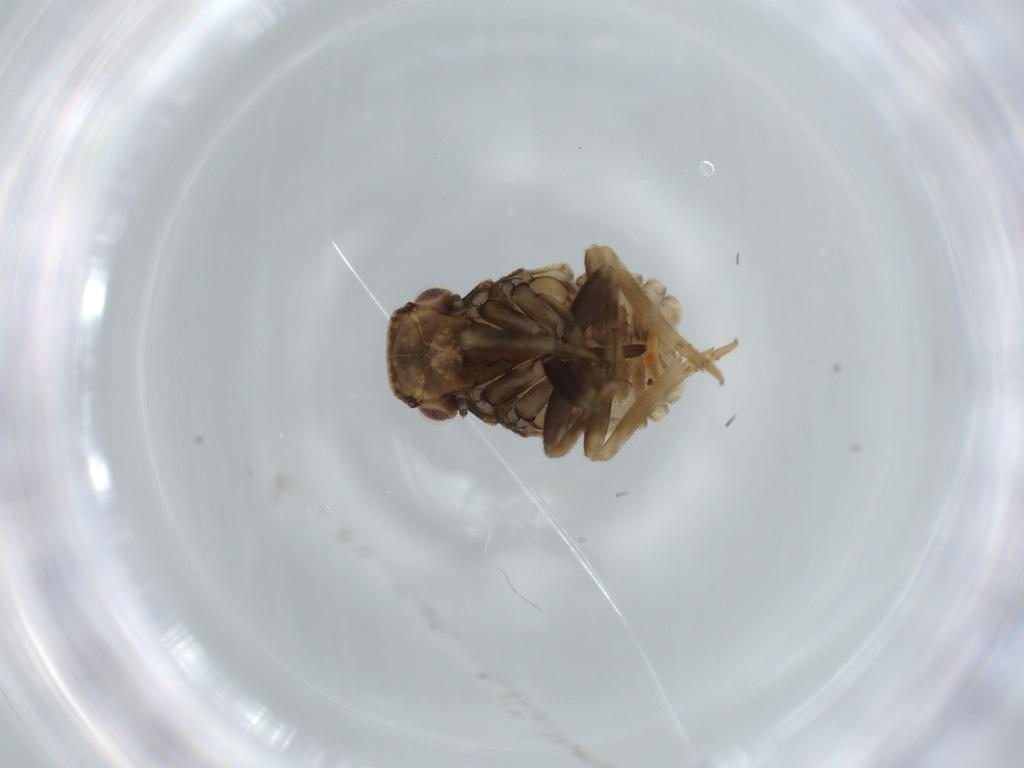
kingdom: Animalia
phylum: Arthropoda
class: Insecta
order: Hemiptera
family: Fulgoroidea_incertae_sedis
